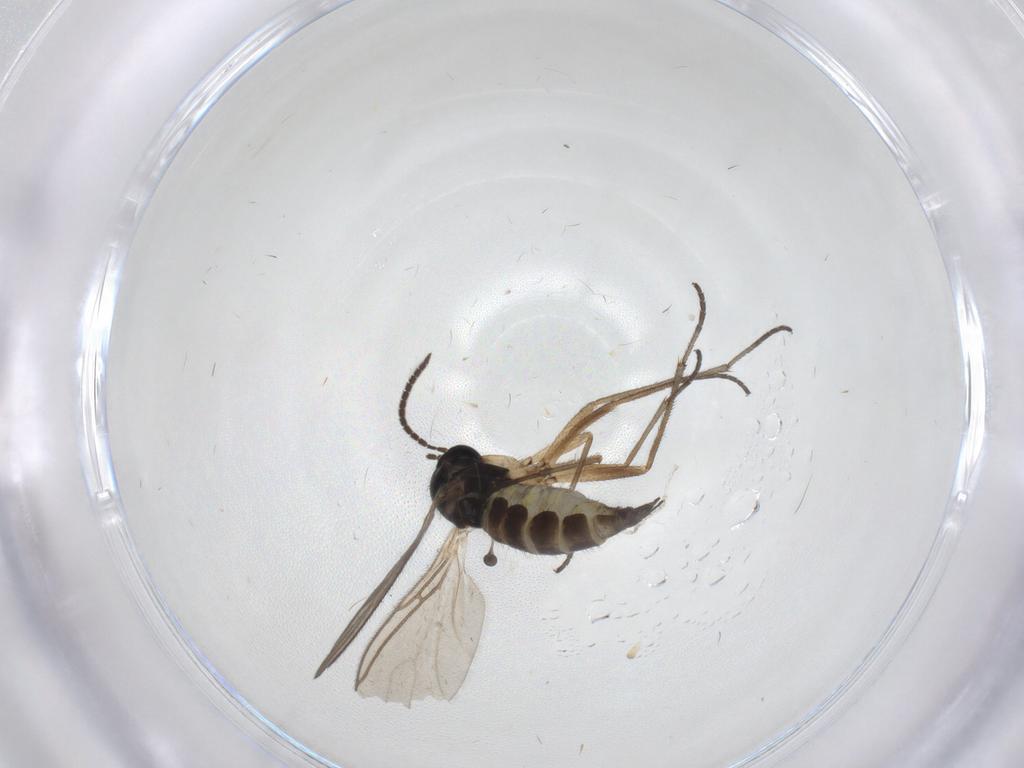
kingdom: Animalia
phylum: Arthropoda
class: Insecta
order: Diptera
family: Sciaridae
